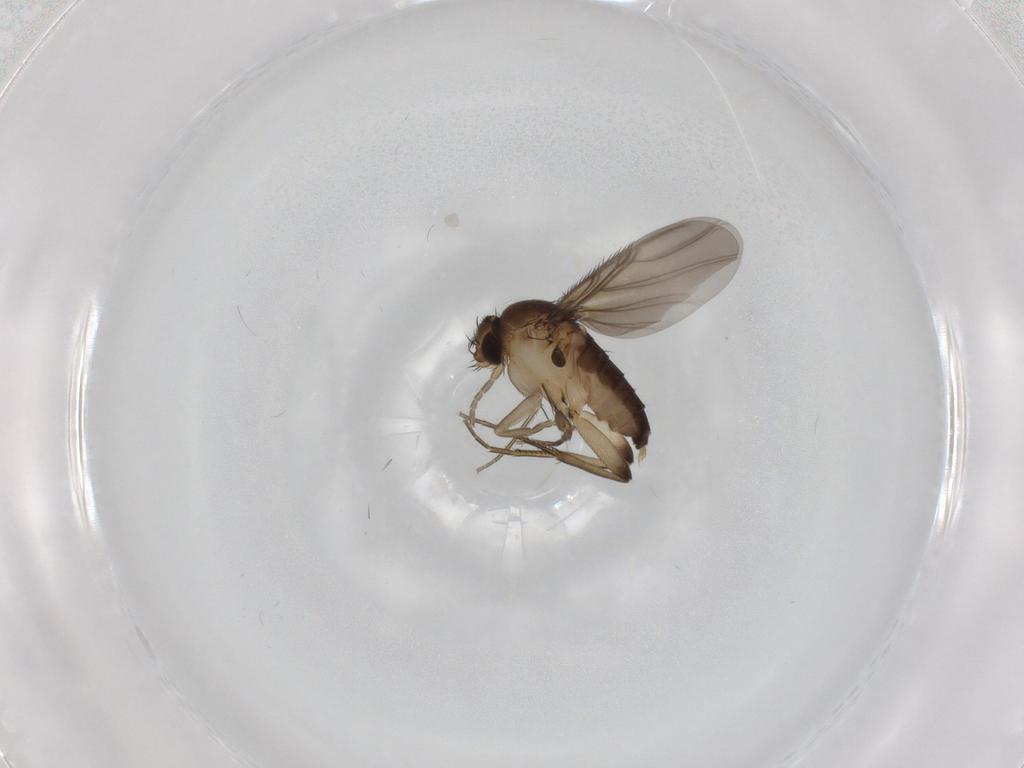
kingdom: Animalia
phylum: Arthropoda
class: Insecta
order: Diptera
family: Phoridae
